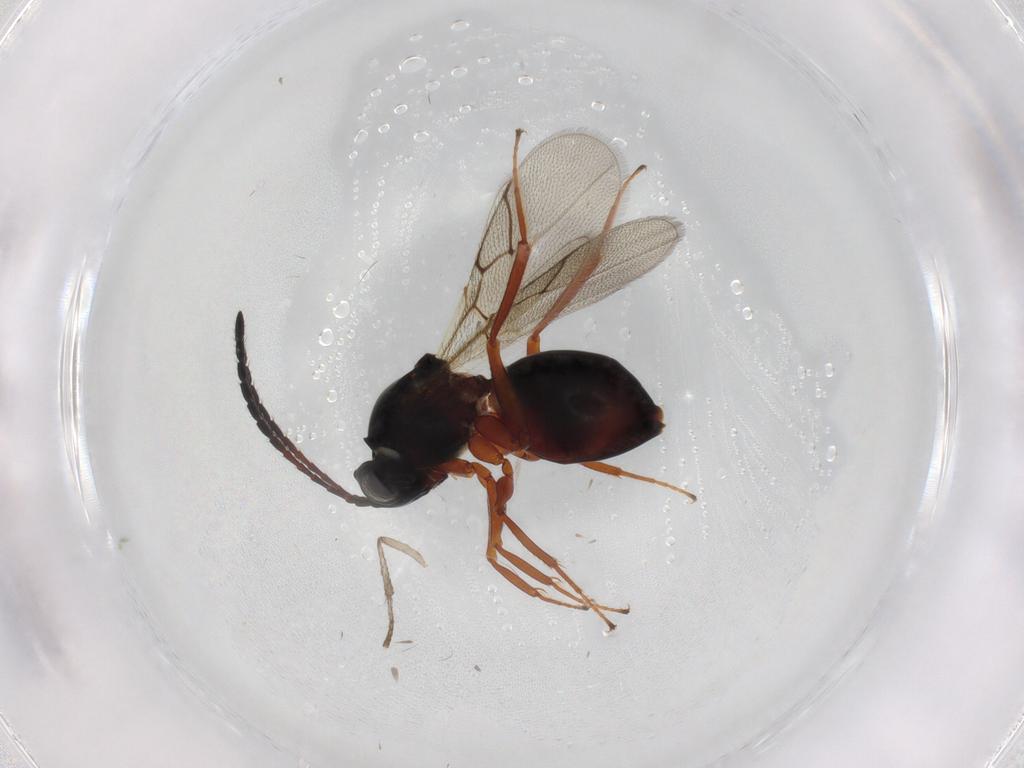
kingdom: Animalia
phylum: Arthropoda
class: Insecta
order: Hymenoptera
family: Figitidae
